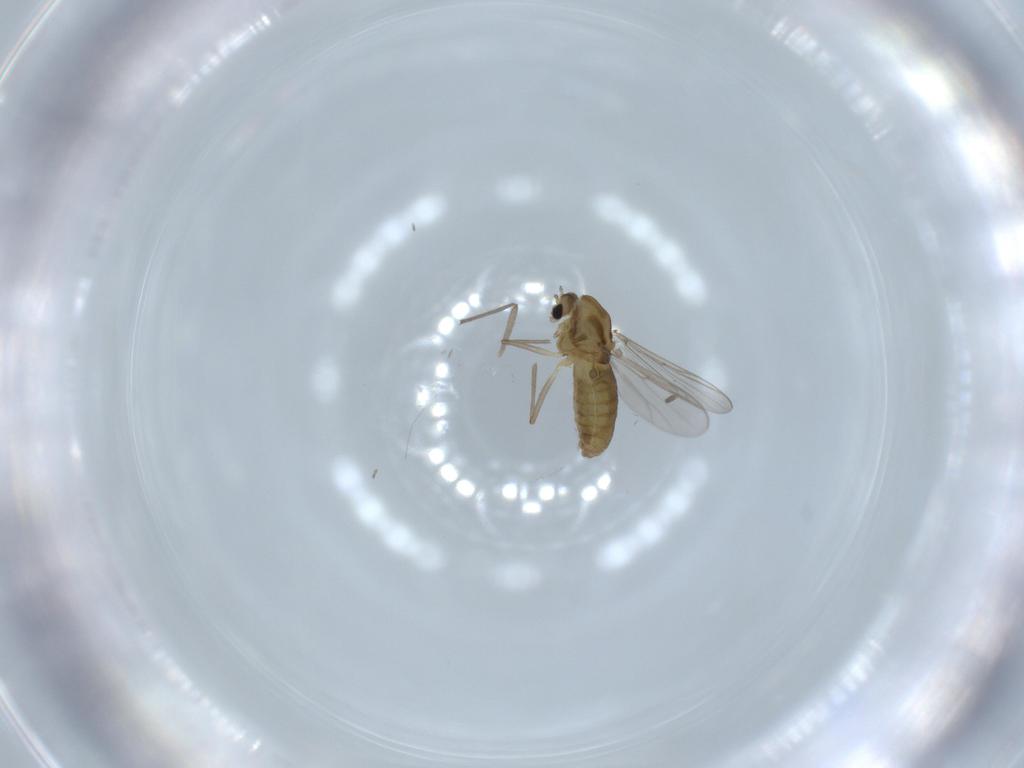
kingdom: Animalia
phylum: Arthropoda
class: Insecta
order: Diptera
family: Chironomidae
